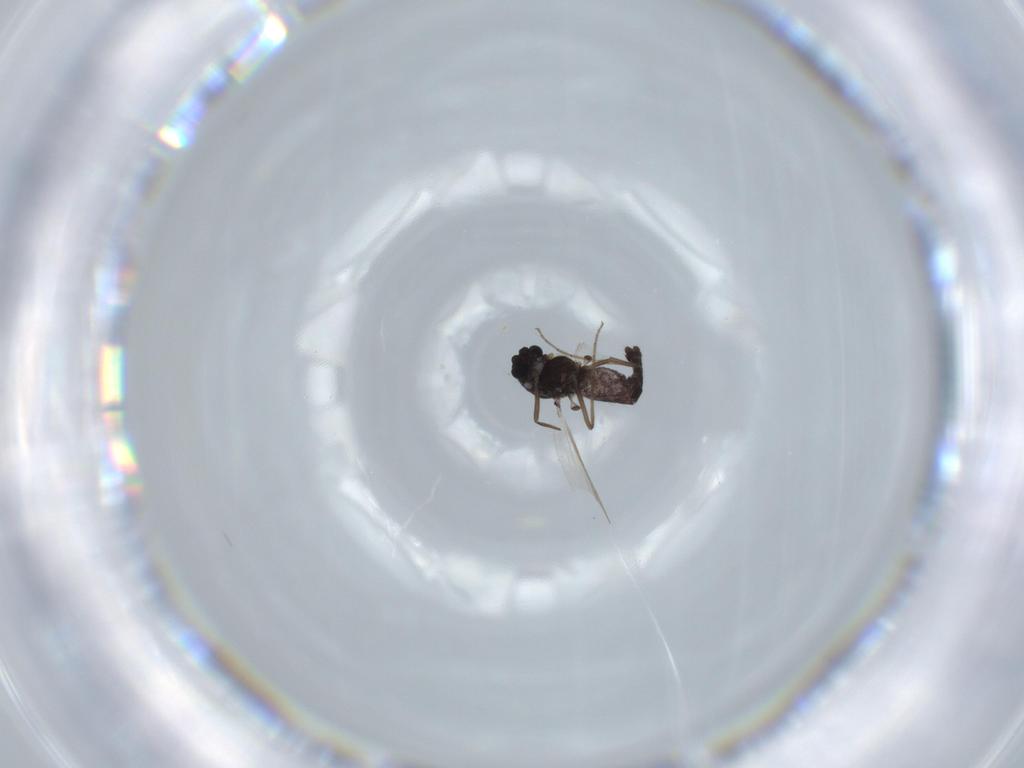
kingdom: Animalia
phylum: Arthropoda
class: Insecta
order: Diptera
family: Chironomidae
